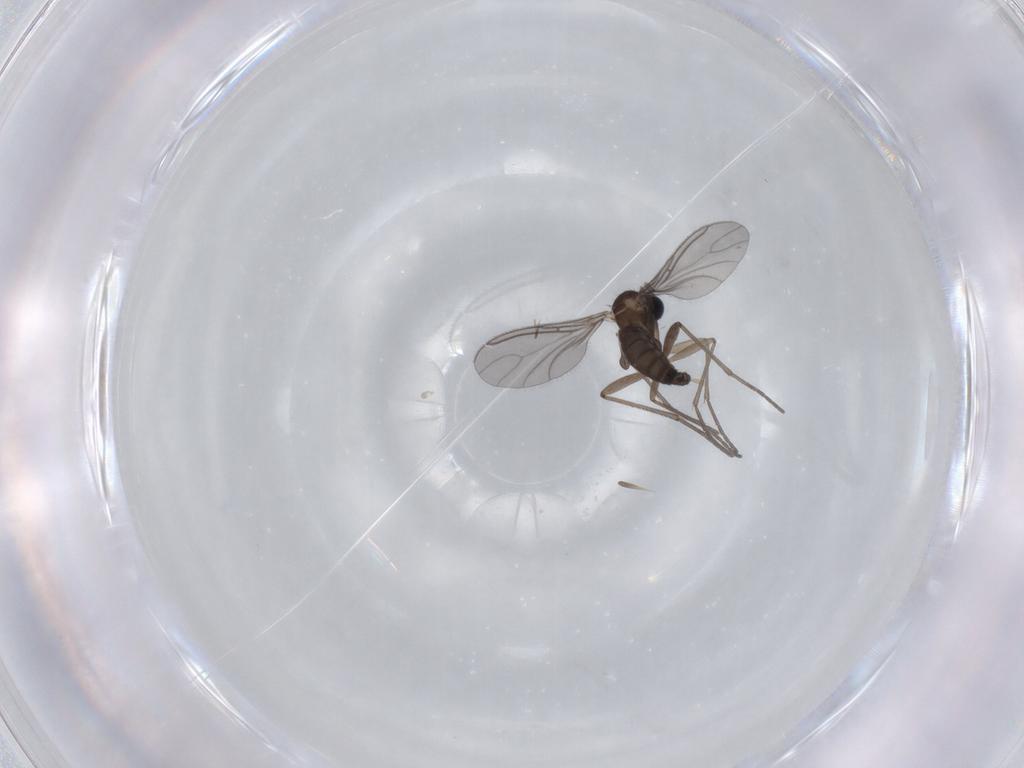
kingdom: Animalia
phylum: Arthropoda
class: Insecta
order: Diptera
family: Sciaridae
